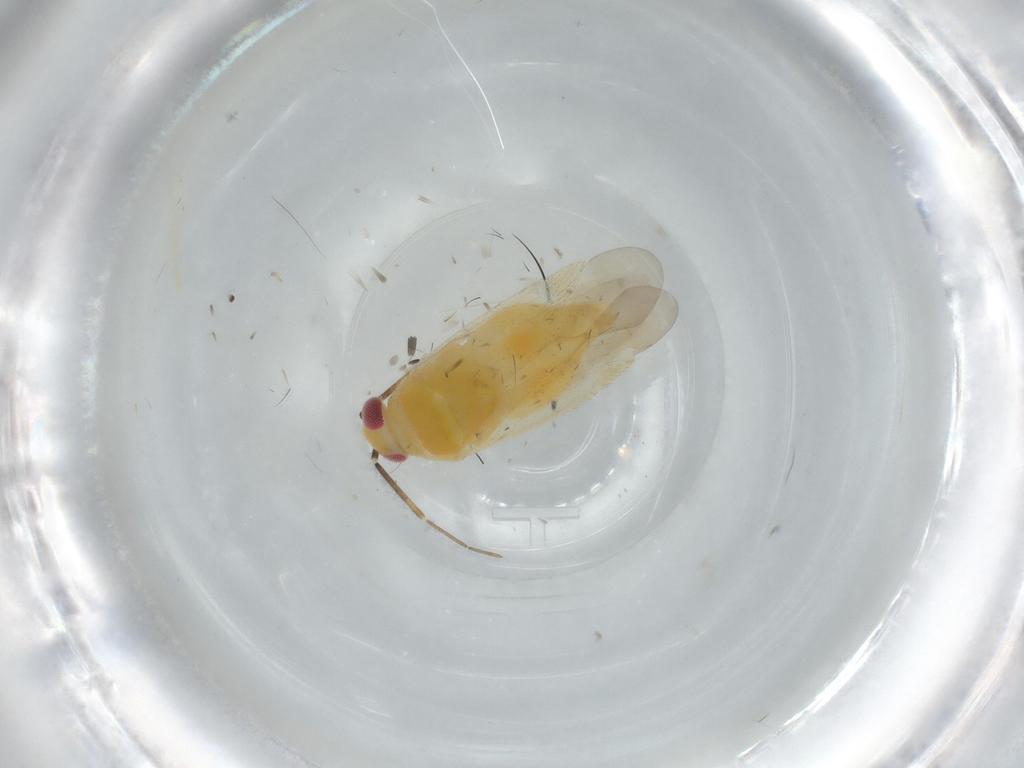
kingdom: Animalia
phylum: Arthropoda
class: Insecta
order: Hemiptera
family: Miridae
